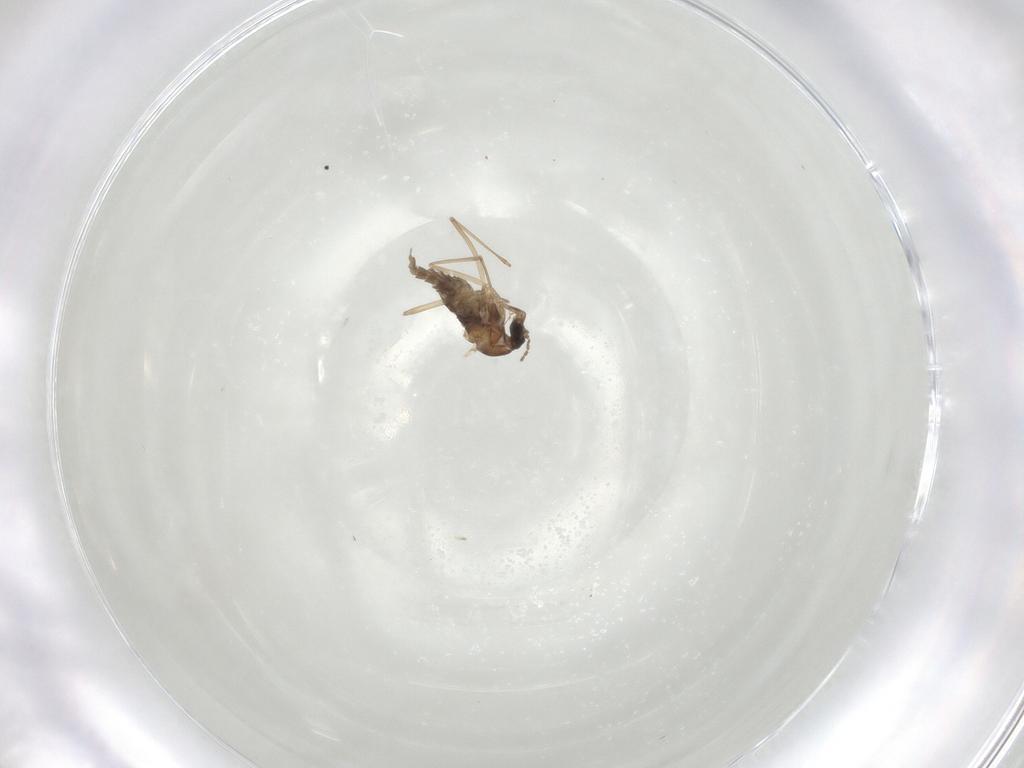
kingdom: Animalia
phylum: Arthropoda
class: Insecta
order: Diptera
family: Cecidomyiidae
